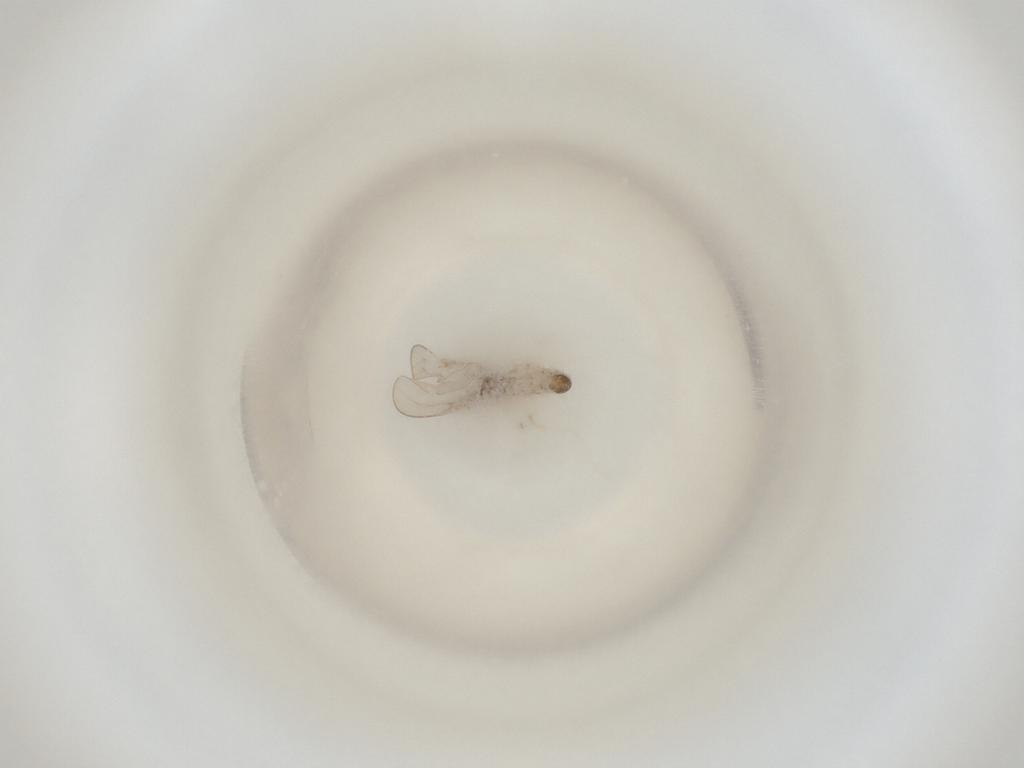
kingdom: Animalia
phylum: Arthropoda
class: Insecta
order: Diptera
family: Cecidomyiidae
